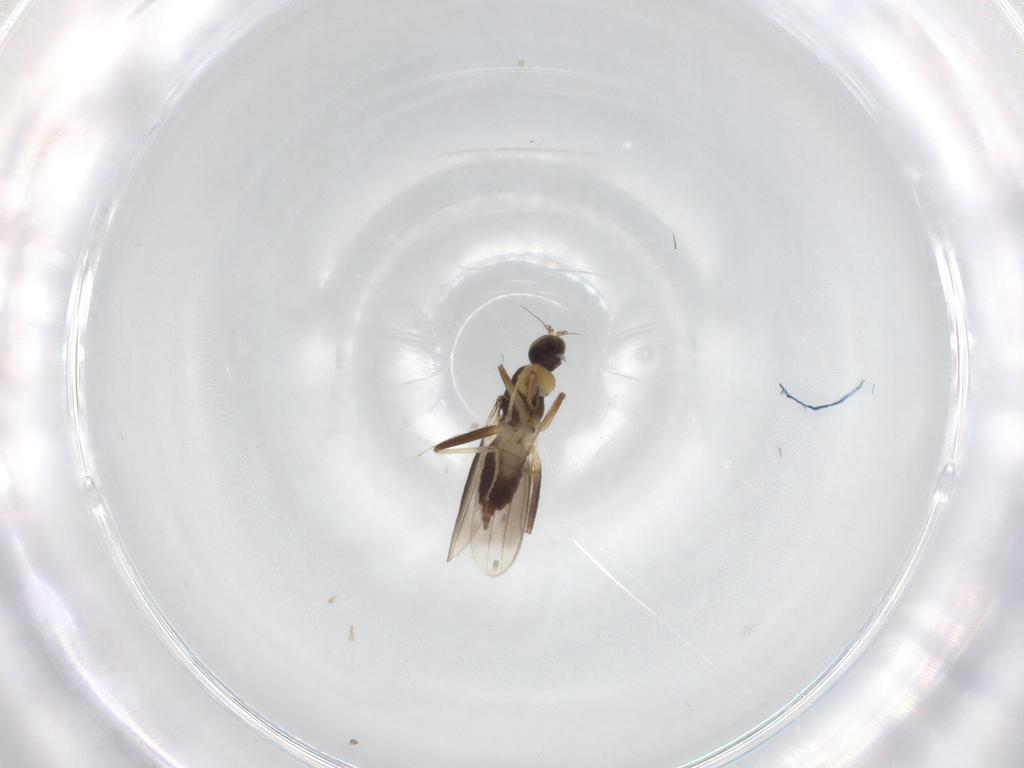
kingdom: Animalia
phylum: Arthropoda
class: Insecta
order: Diptera
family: Hybotidae
